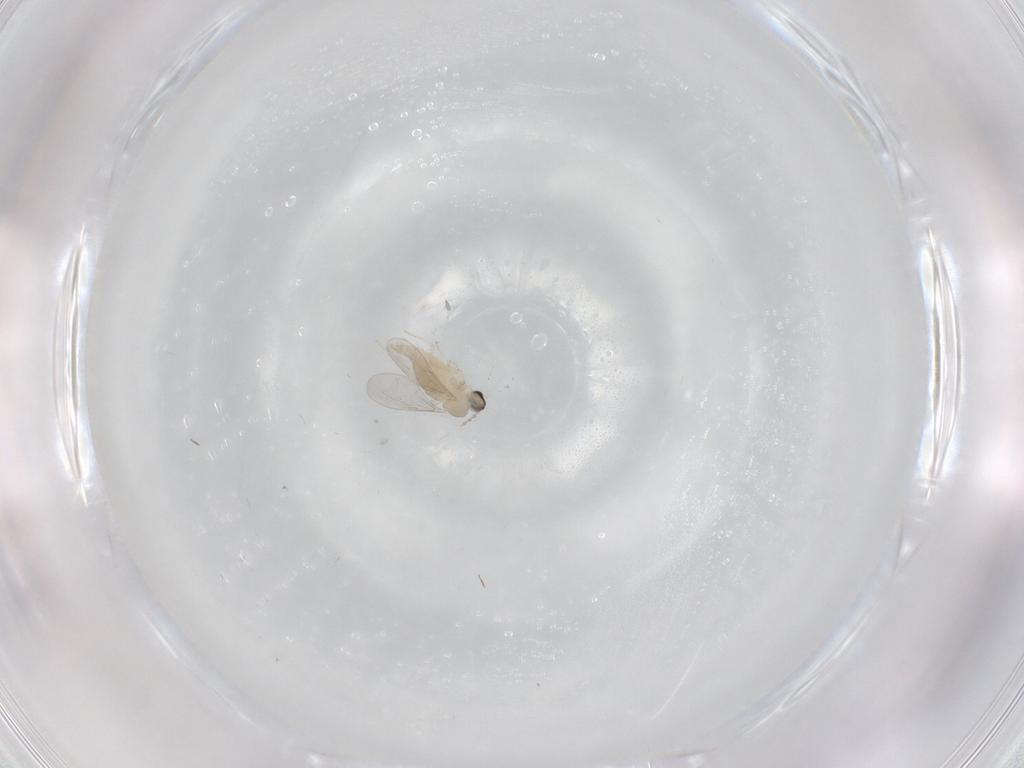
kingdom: Animalia
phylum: Arthropoda
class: Insecta
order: Diptera
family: Cecidomyiidae
